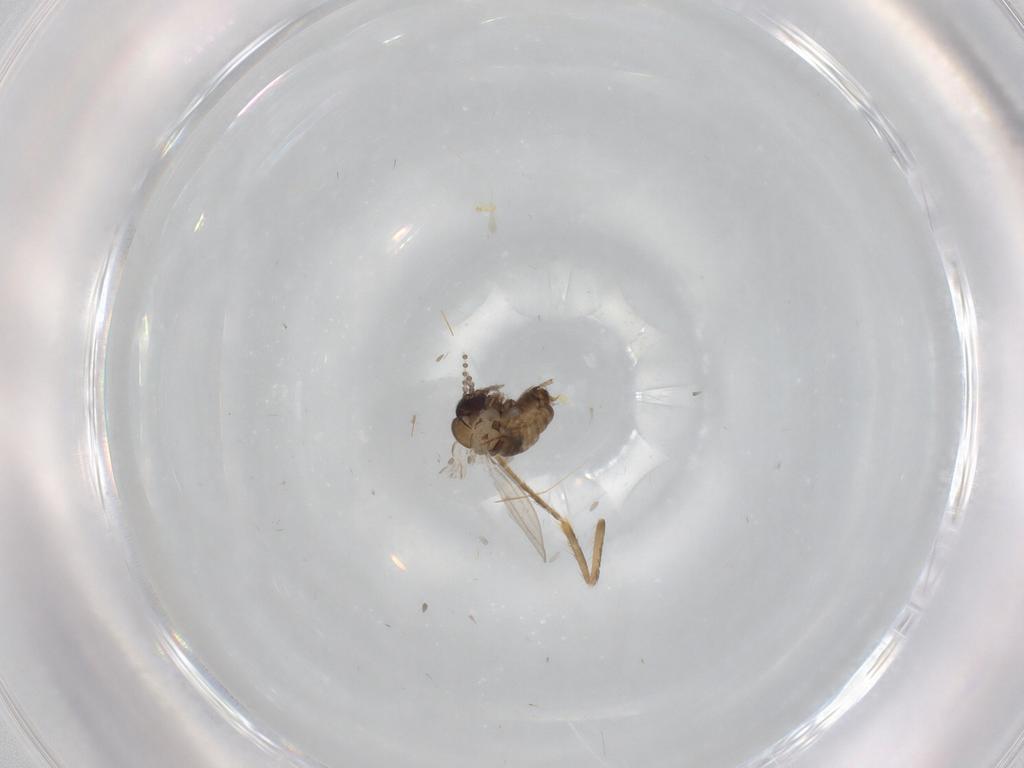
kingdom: Animalia
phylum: Arthropoda
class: Insecta
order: Diptera
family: Psychodidae
